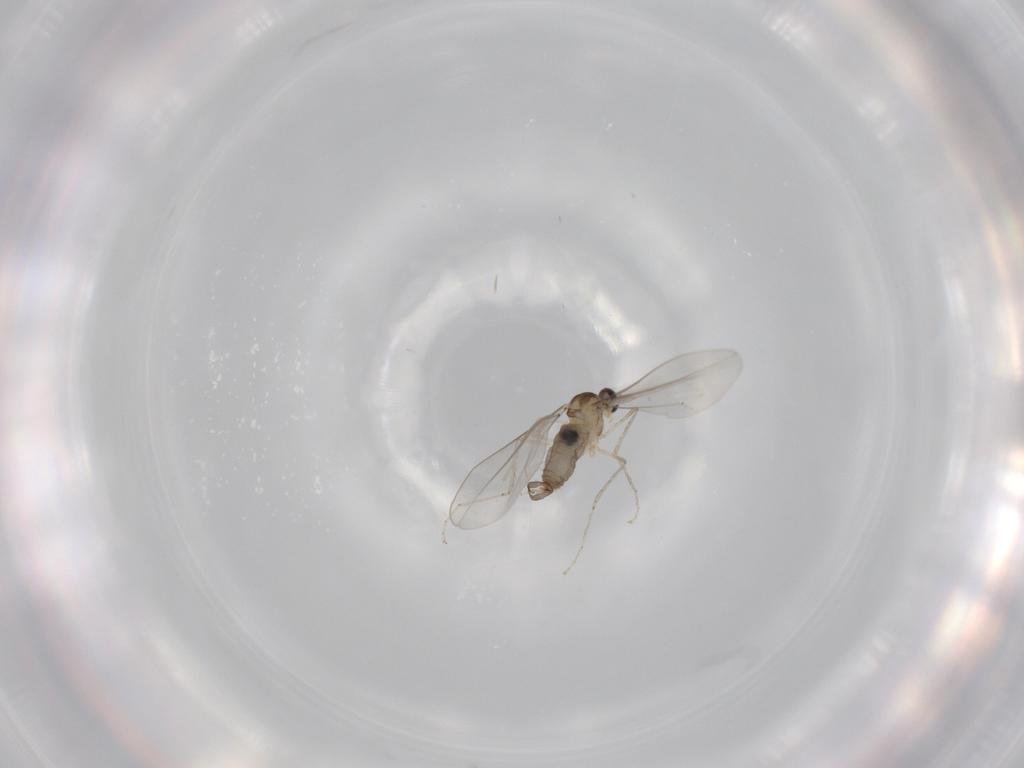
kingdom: Animalia
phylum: Arthropoda
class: Insecta
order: Diptera
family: Cecidomyiidae
